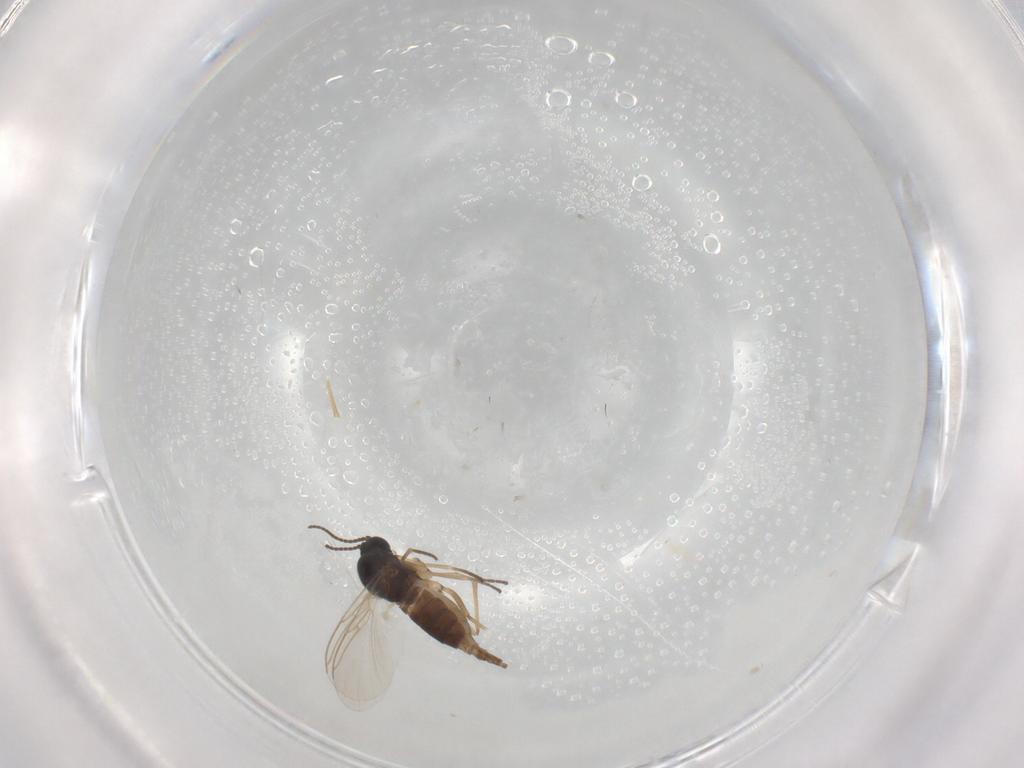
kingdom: Animalia
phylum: Arthropoda
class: Insecta
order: Diptera
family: Sciaridae
